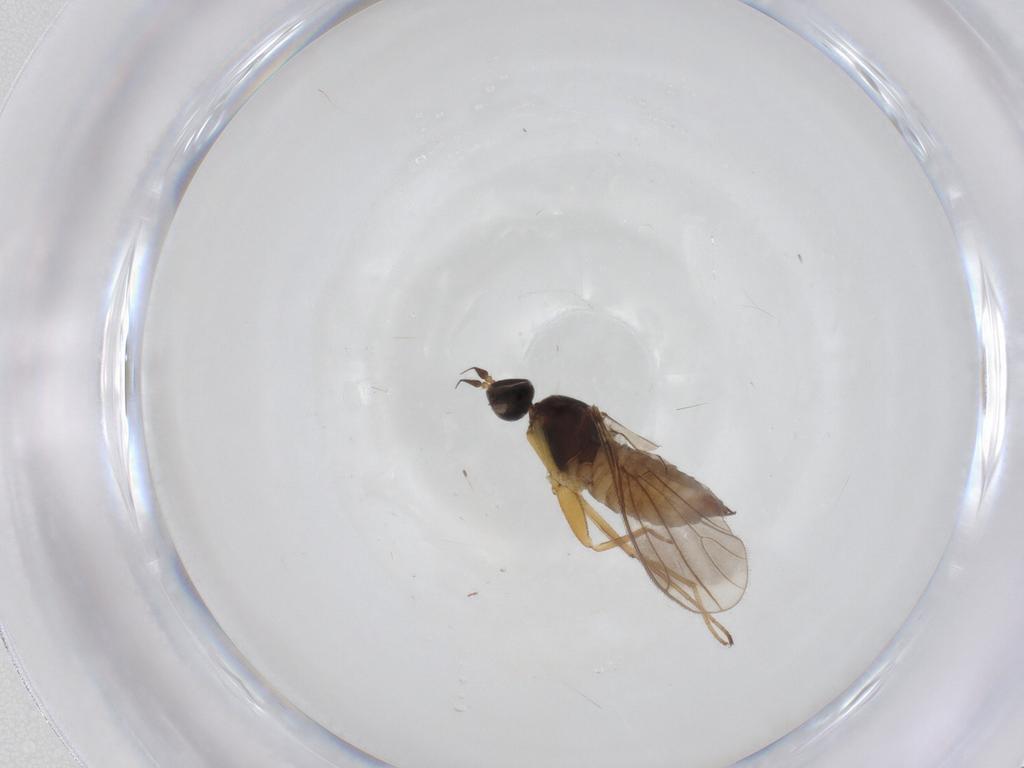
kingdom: Animalia
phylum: Arthropoda
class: Insecta
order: Diptera
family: Empididae
